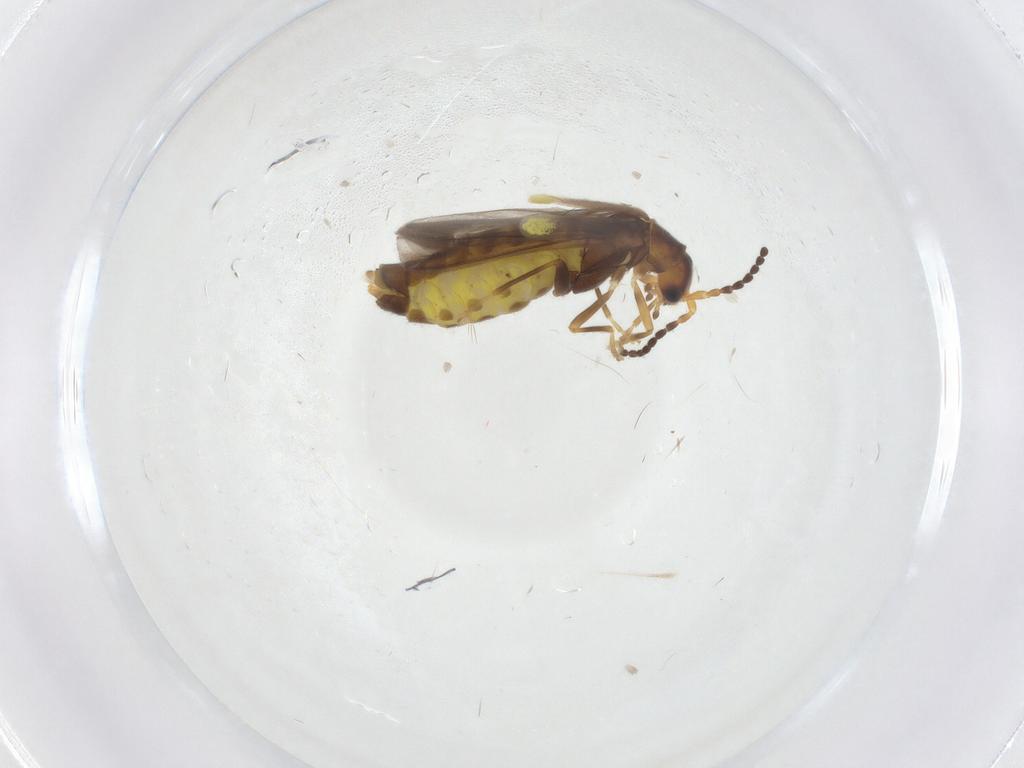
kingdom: Animalia
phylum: Arthropoda
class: Insecta
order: Coleoptera
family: Cantharidae
